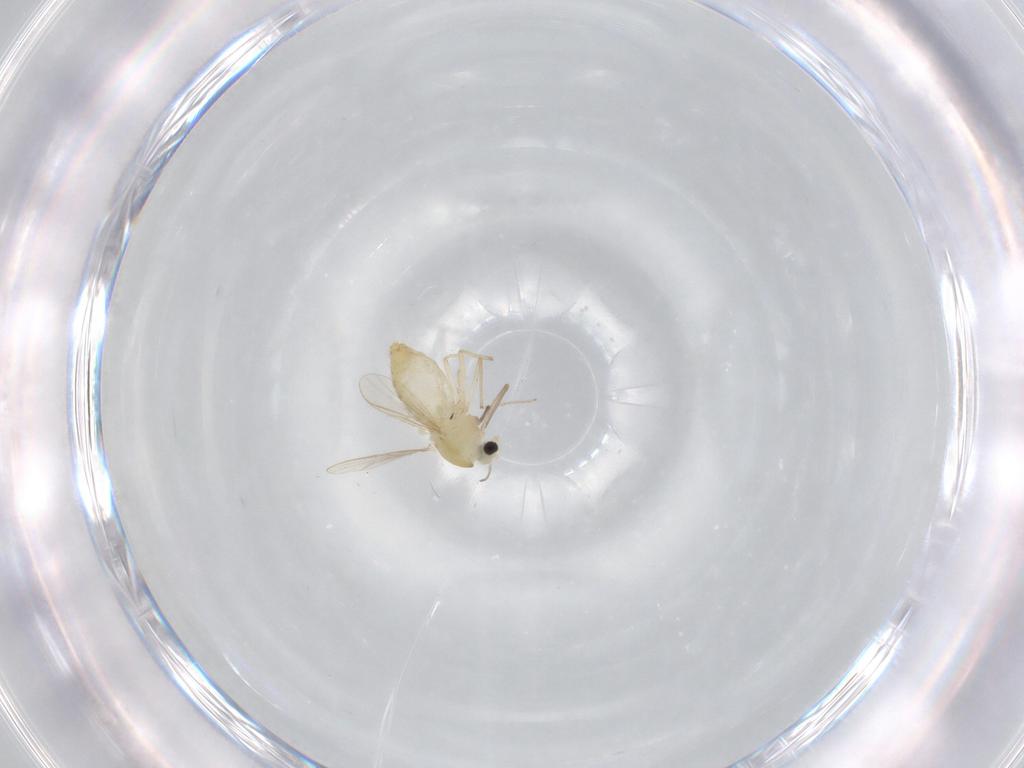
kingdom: Animalia
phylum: Arthropoda
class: Insecta
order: Diptera
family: Chironomidae
